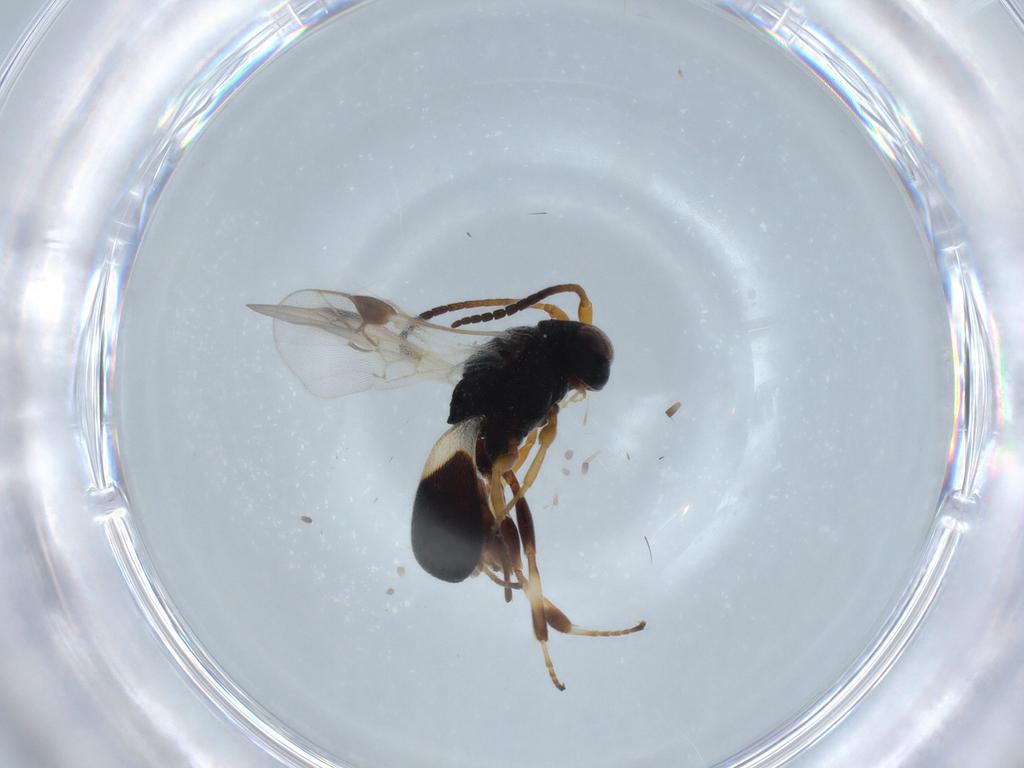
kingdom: Animalia
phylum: Arthropoda
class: Insecta
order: Hymenoptera
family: Braconidae
